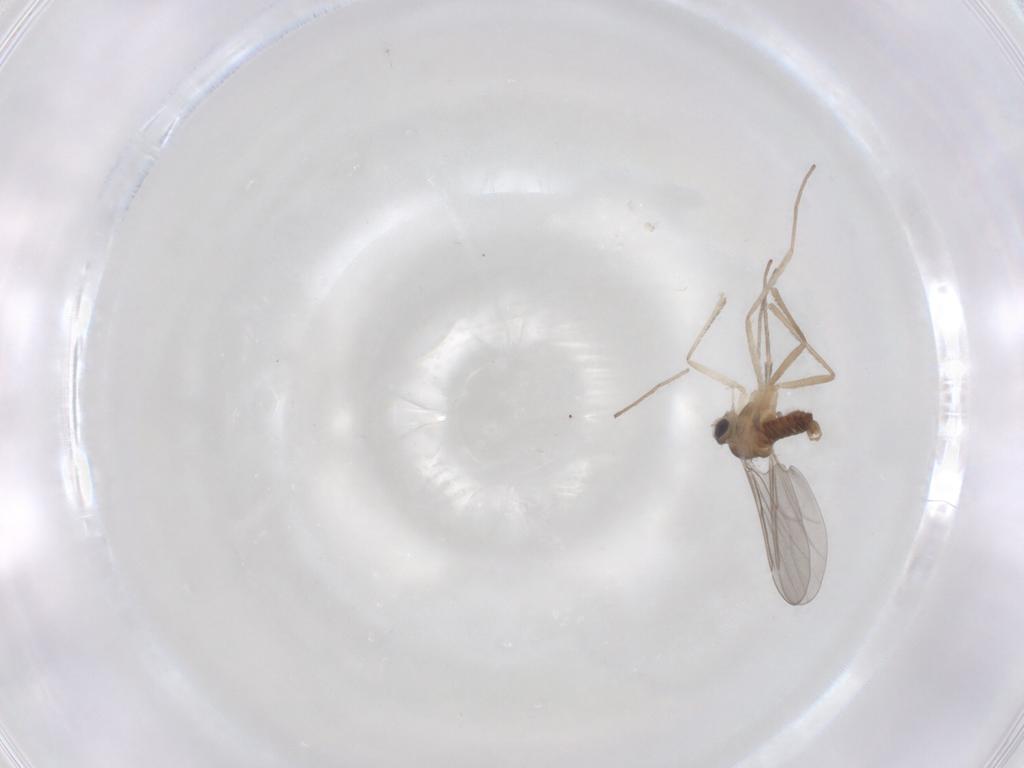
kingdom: Animalia
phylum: Arthropoda
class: Insecta
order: Diptera
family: Cecidomyiidae
